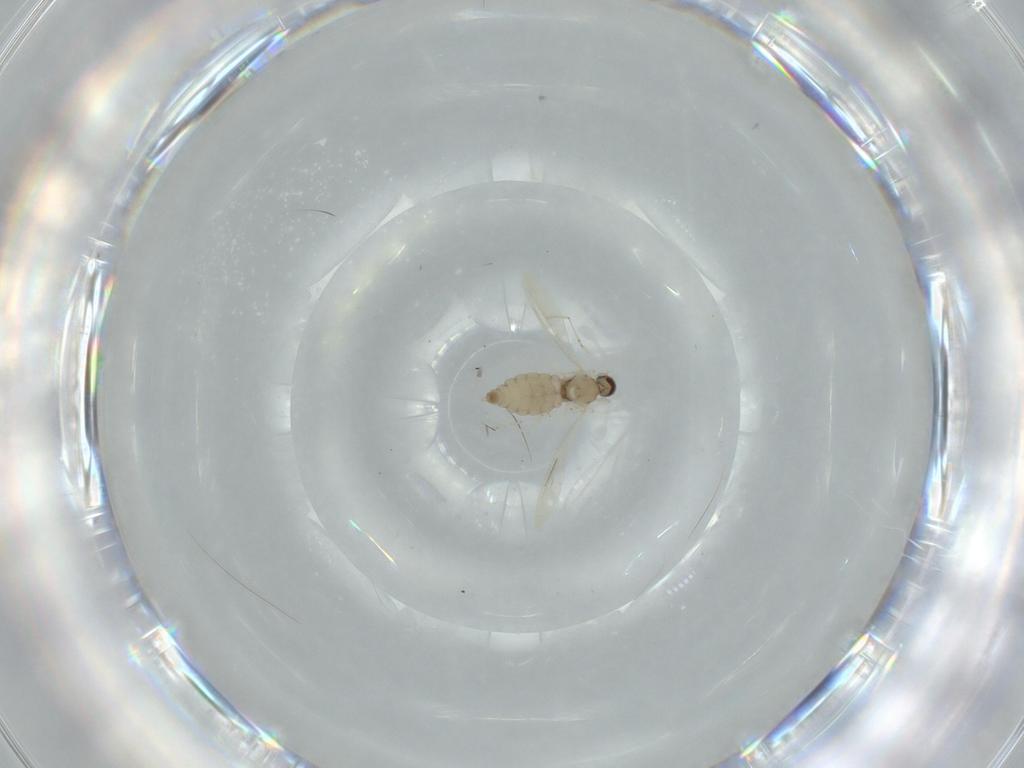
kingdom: Animalia
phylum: Arthropoda
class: Insecta
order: Diptera
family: Cecidomyiidae
